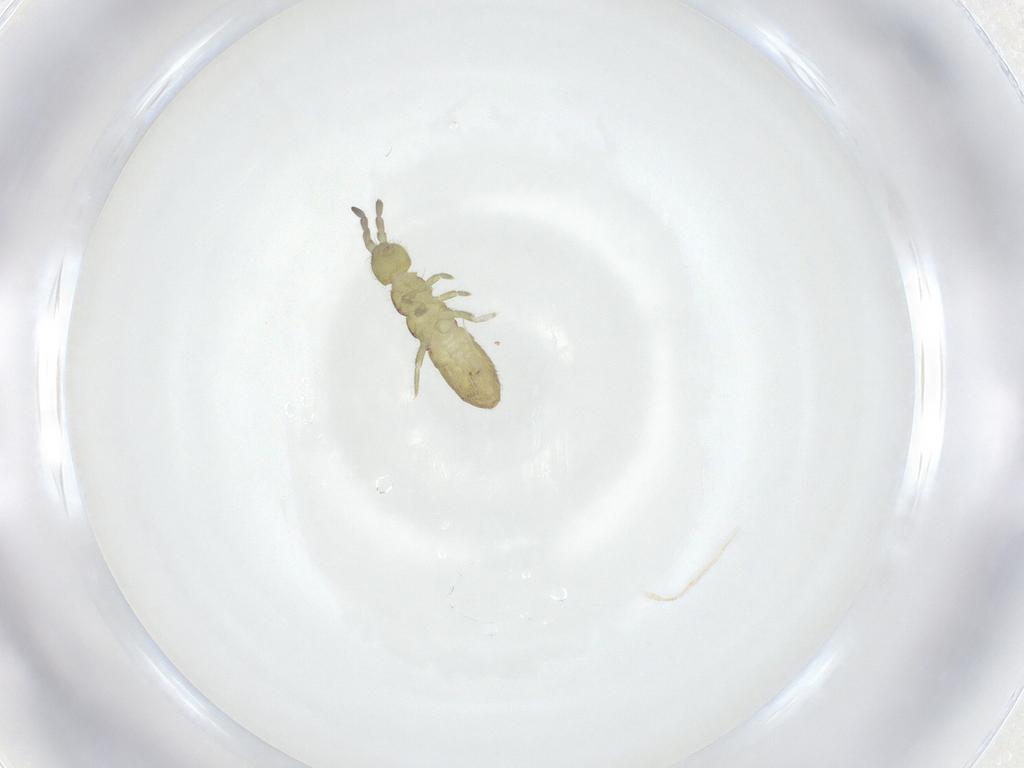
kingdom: Animalia
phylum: Arthropoda
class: Collembola
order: Entomobryomorpha
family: Isotomidae
